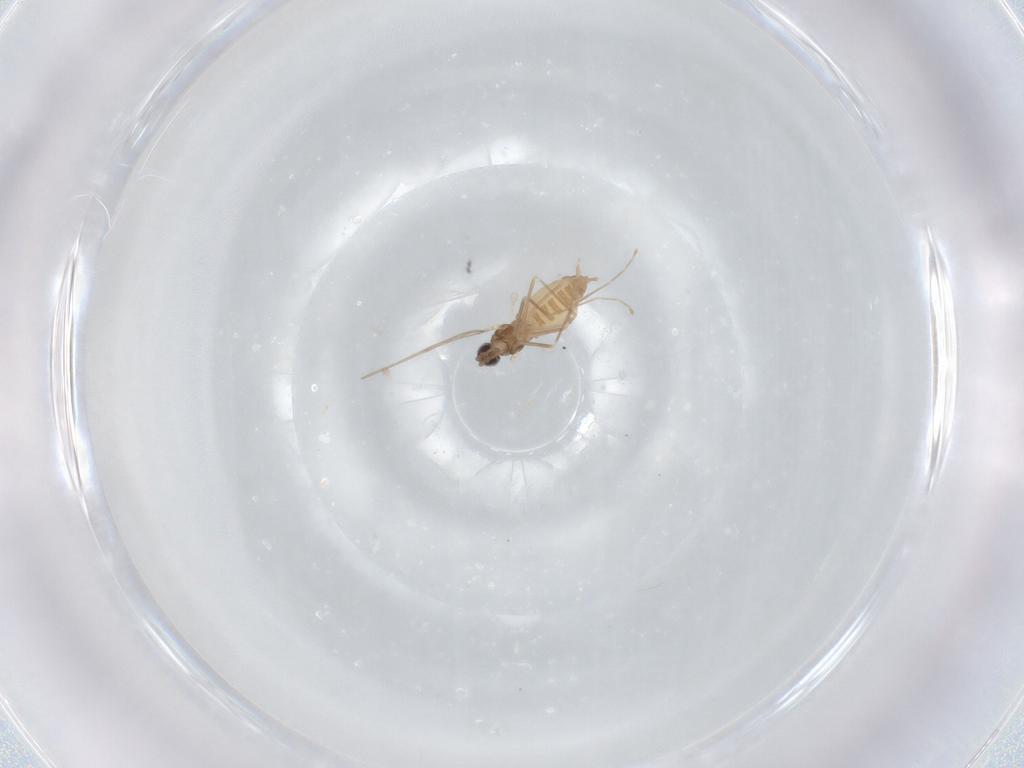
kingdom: Animalia
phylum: Arthropoda
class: Insecta
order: Diptera
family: Cecidomyiidae
